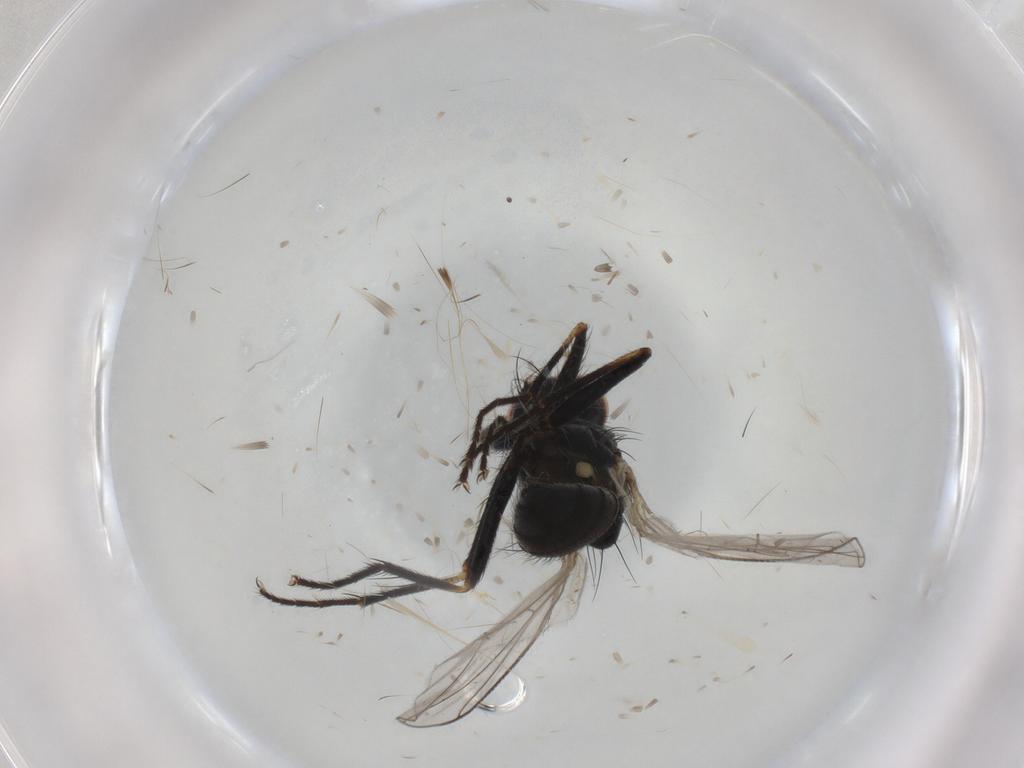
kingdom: Animalia
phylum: Arthropoda
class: Insecta
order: Diptera
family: Muscidae
